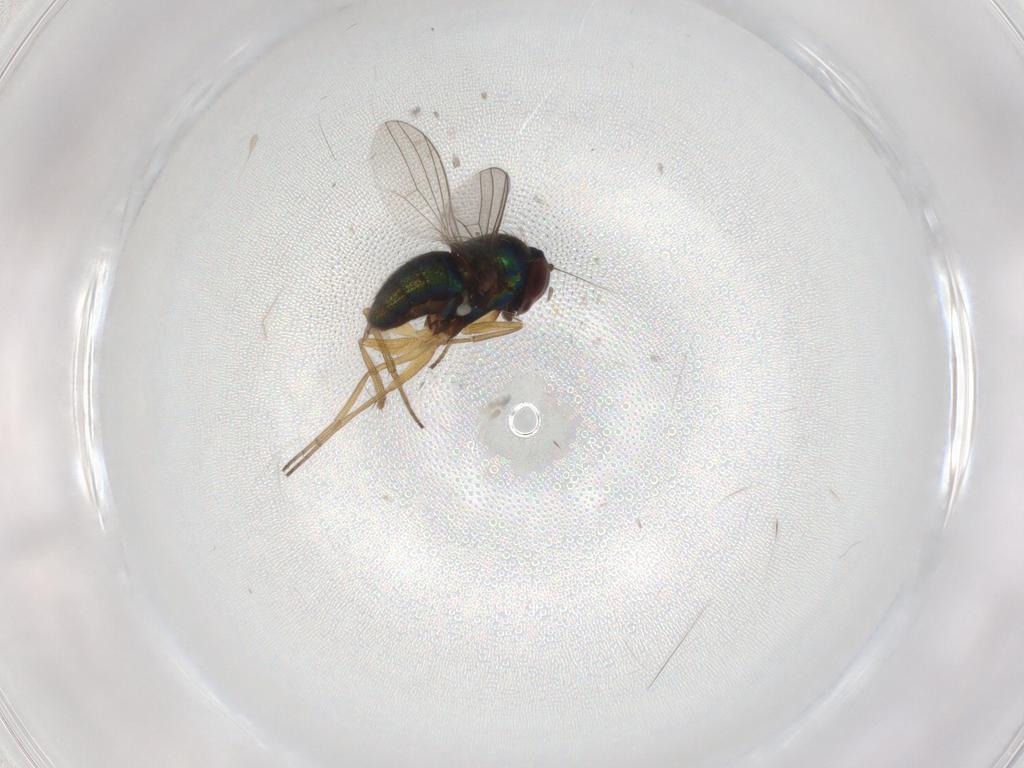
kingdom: Animalia
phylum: Arthropoda
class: Insecta
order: Diptera
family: Dolichopodidae
